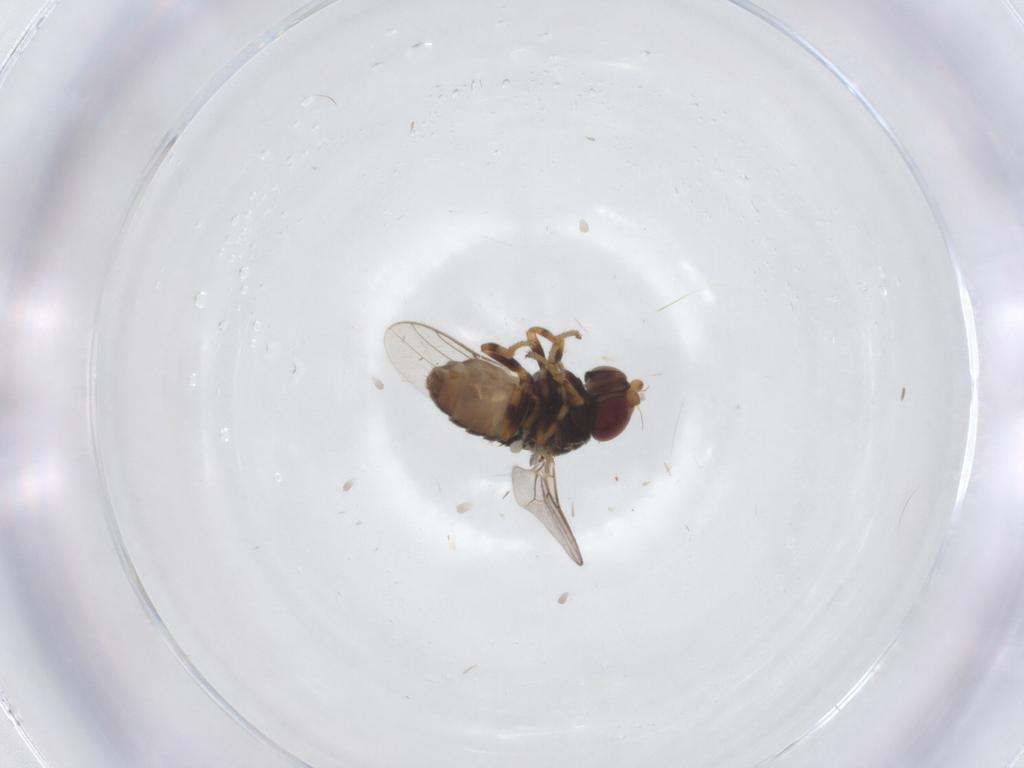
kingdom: Animalia
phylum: Arthropoda
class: Insecta
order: Diptera
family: Chloropidae
